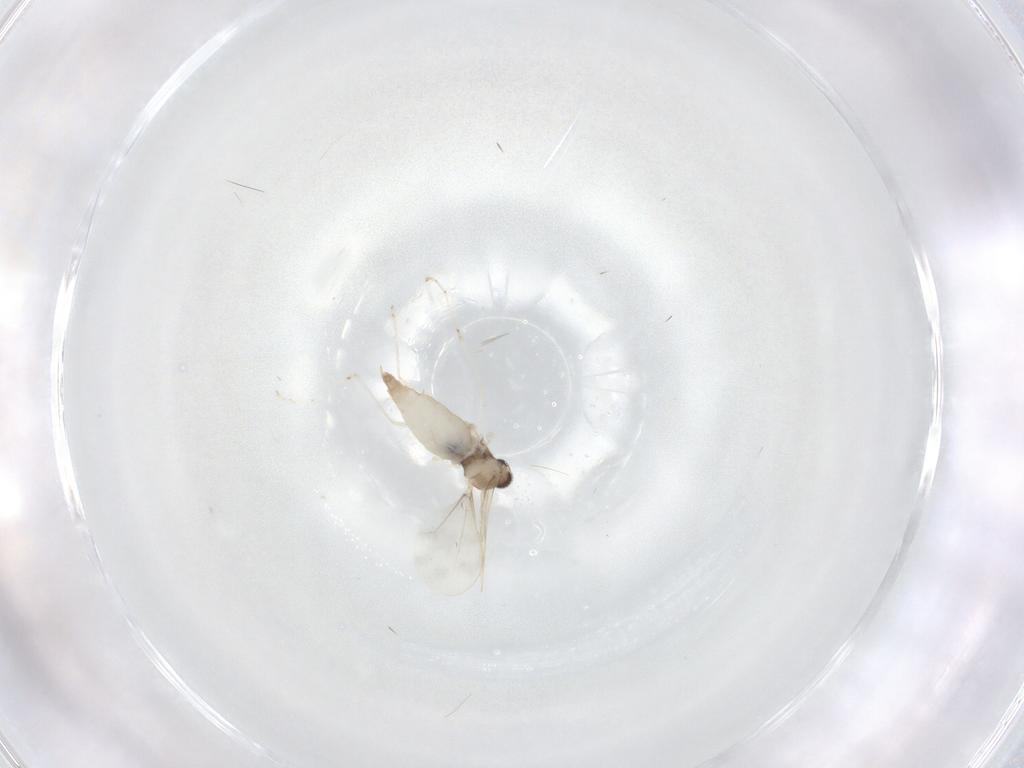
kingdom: Animalia
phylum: Arthropoda
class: Insecta
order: Diptera
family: Cecidomyiidae
